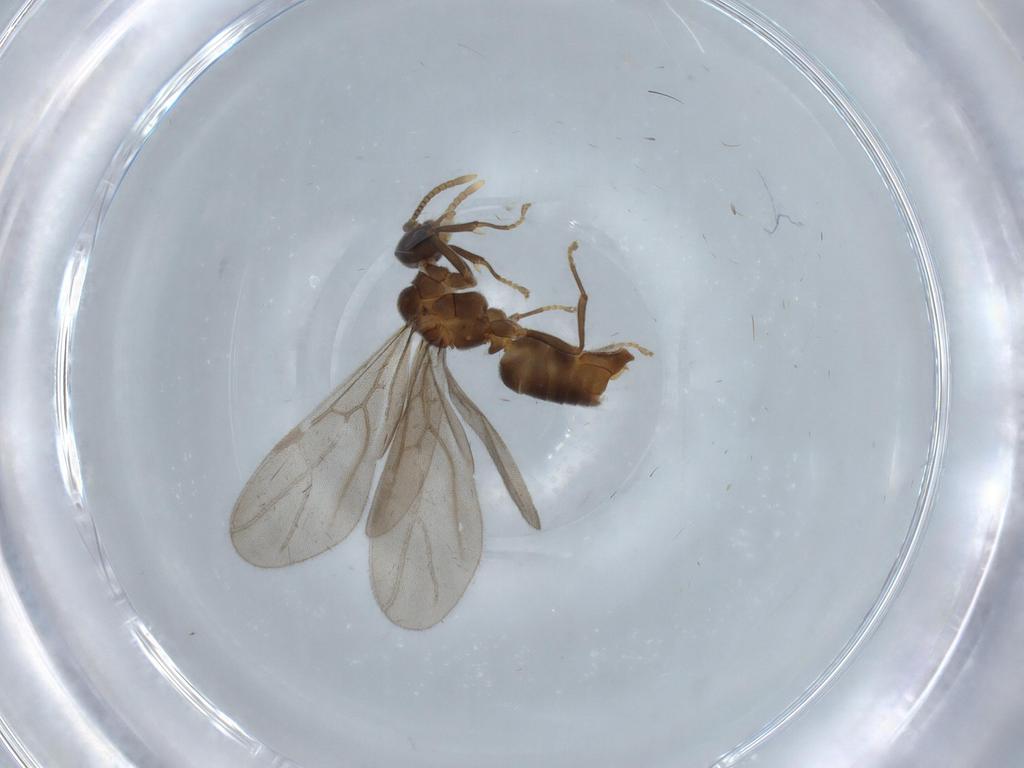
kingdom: Animalia
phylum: Arthropoda
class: Insecta
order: Hymenoptera
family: Formicidae
